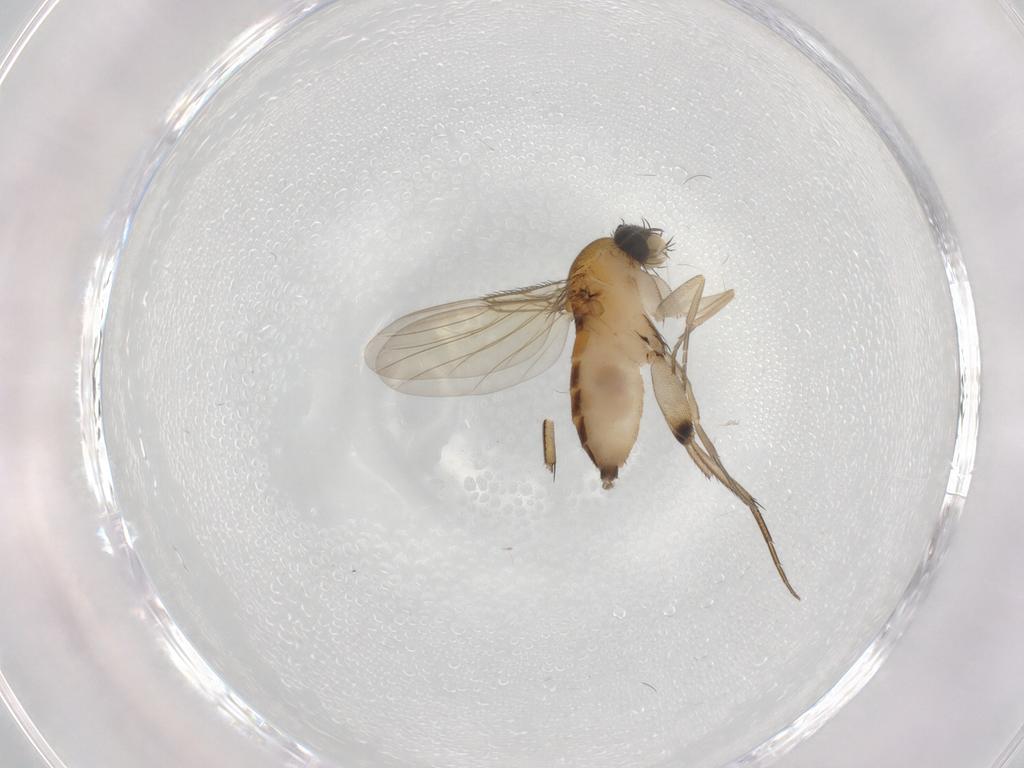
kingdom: Animalia
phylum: Arthropoda
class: Insecta
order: Diptera
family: Phoridae
